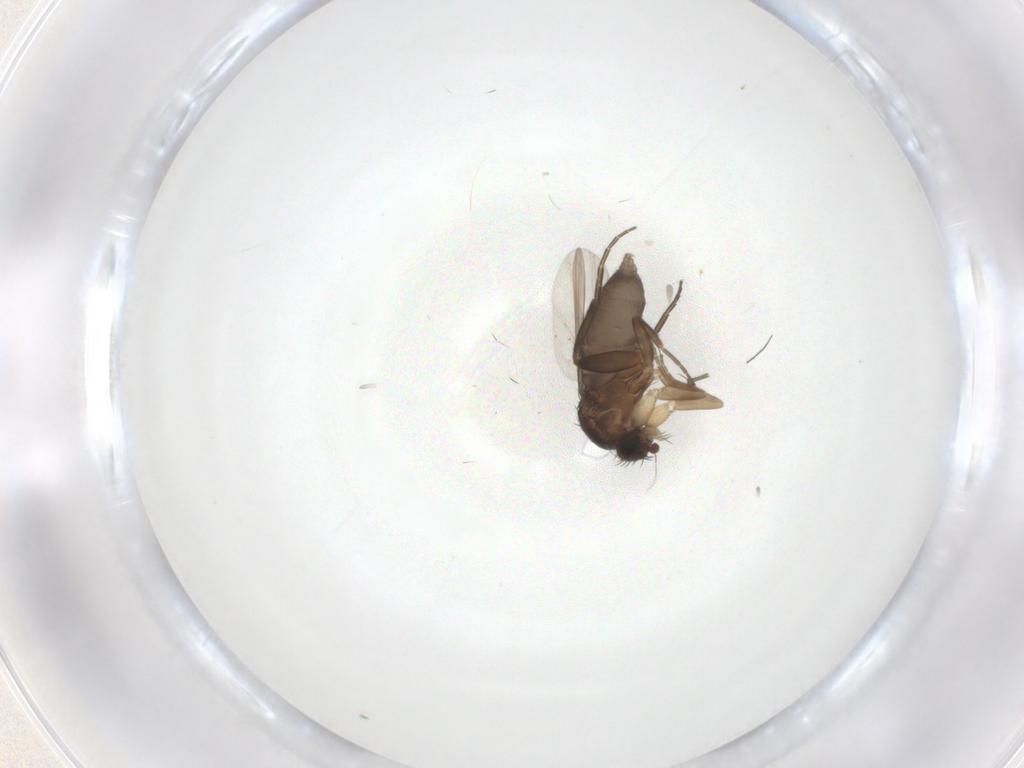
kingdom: Animalia
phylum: Arthropoda
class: Insecta
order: Diptera
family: Phoridae
